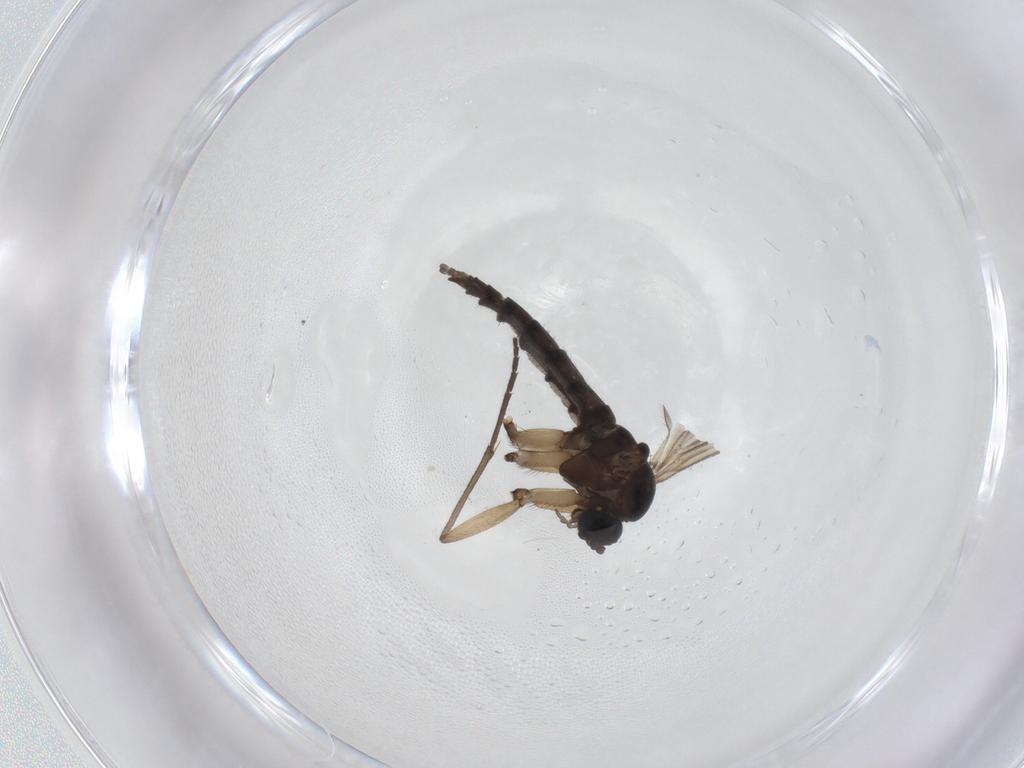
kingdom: Animalia
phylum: Arthropoda
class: Insecta
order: Diptera
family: Sciaridae
